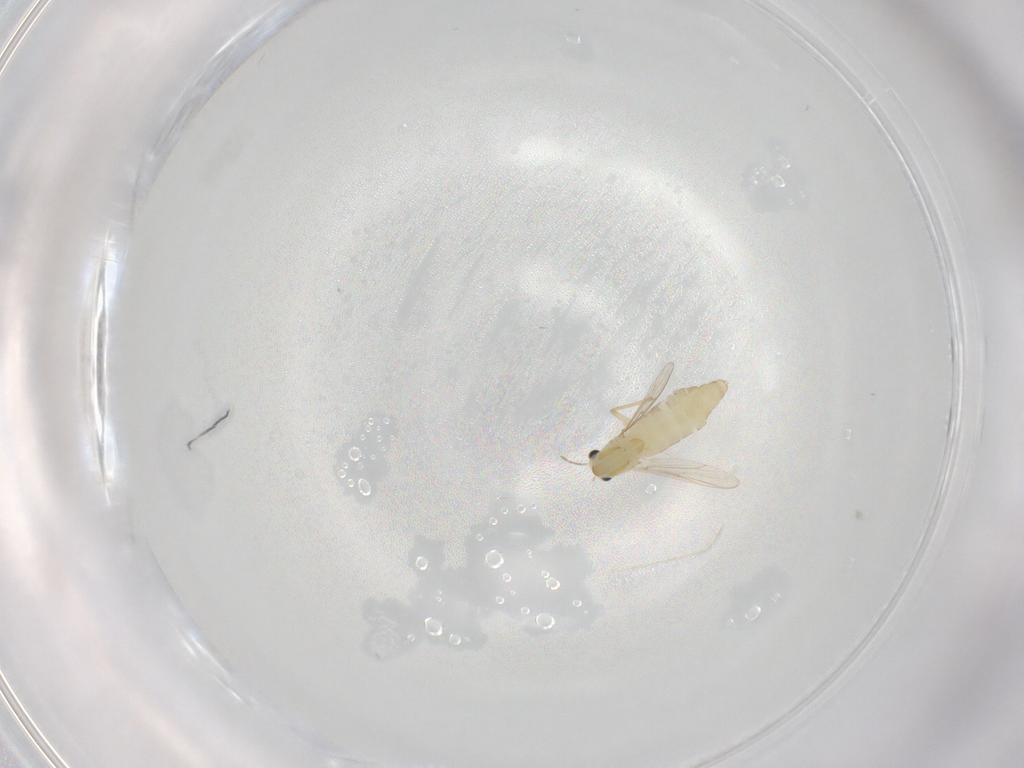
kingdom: Animalia
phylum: Arthropoda
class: Insecta
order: Diptera
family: Chironomidae
